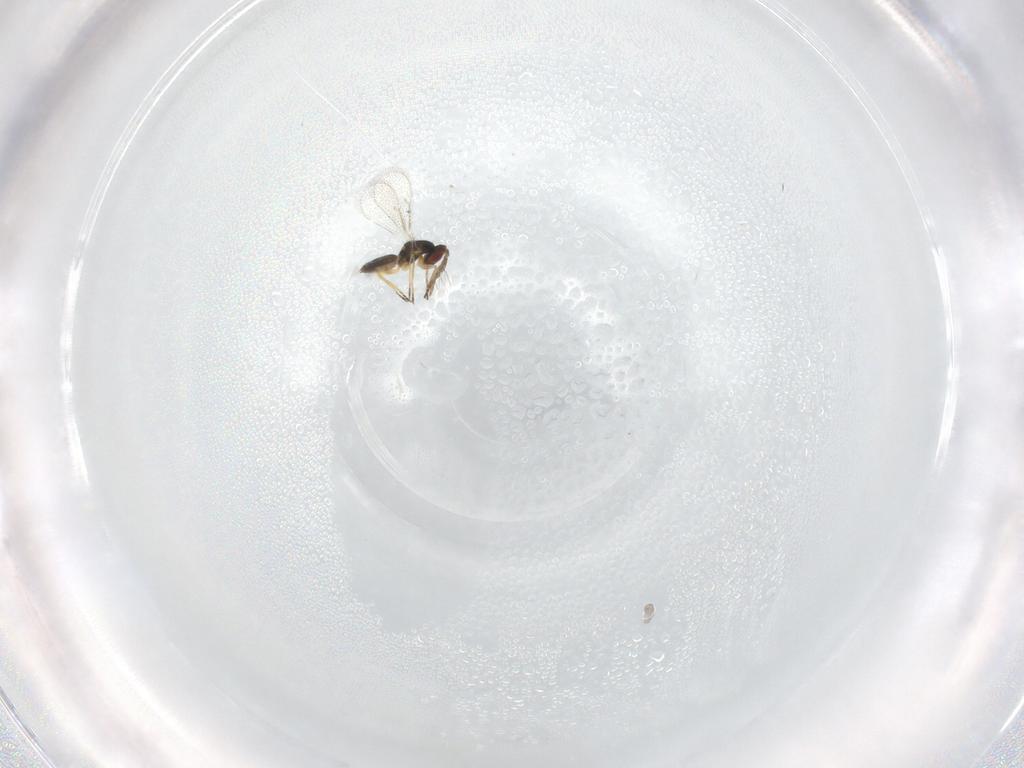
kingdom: Animalia
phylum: Arthropoda
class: Insecta
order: Hymenoptera
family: Eulophidae
